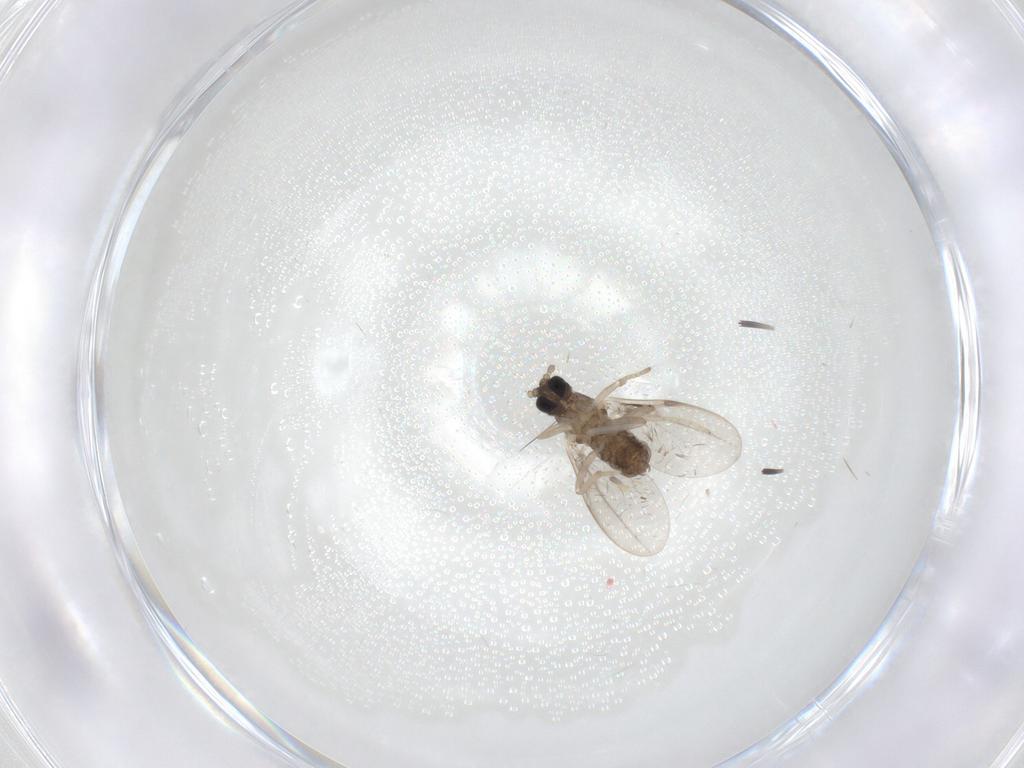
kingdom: Animalia
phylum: Arthropoda
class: Insecta
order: Diptera
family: Cecidomyiidae
